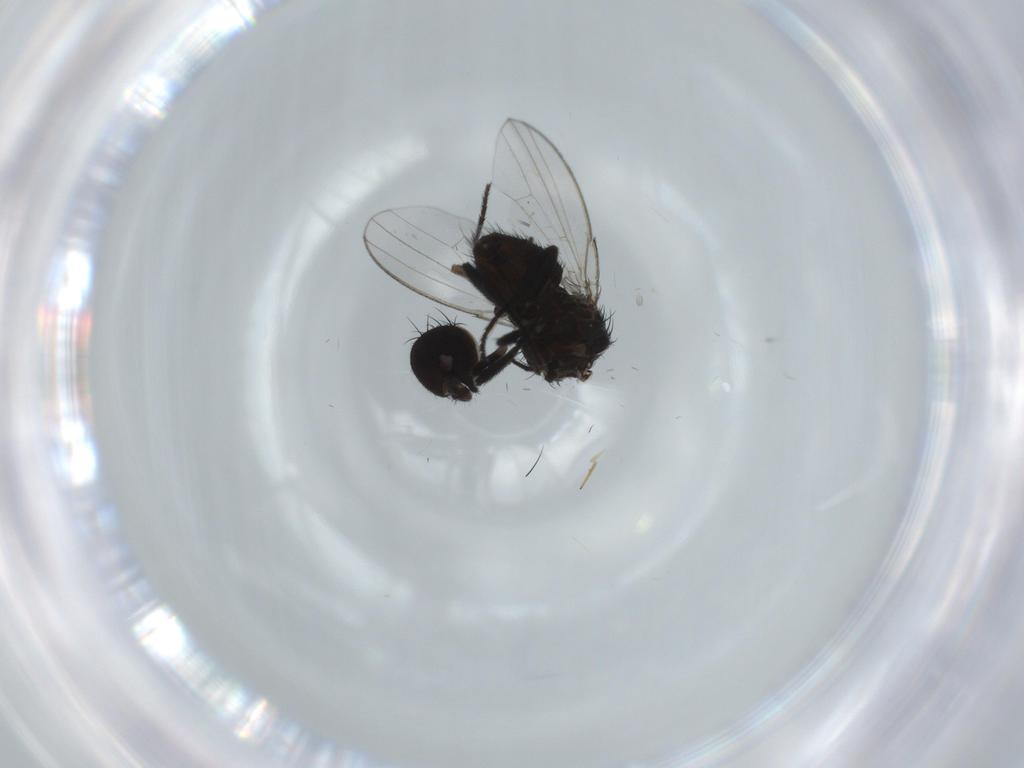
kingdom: Animalia
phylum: Arthropoda
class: Insecta
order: Diptera
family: Milichiidae
